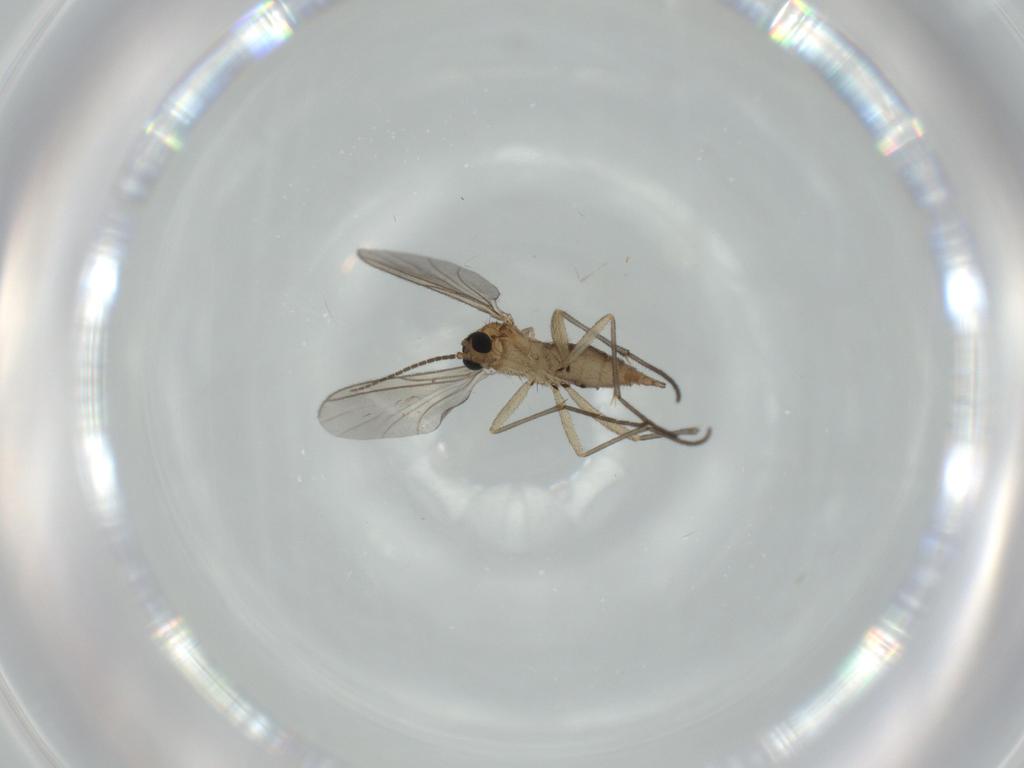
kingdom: Animalia
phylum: Arthropoda
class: Insecta
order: Diptera
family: Sciaridae
